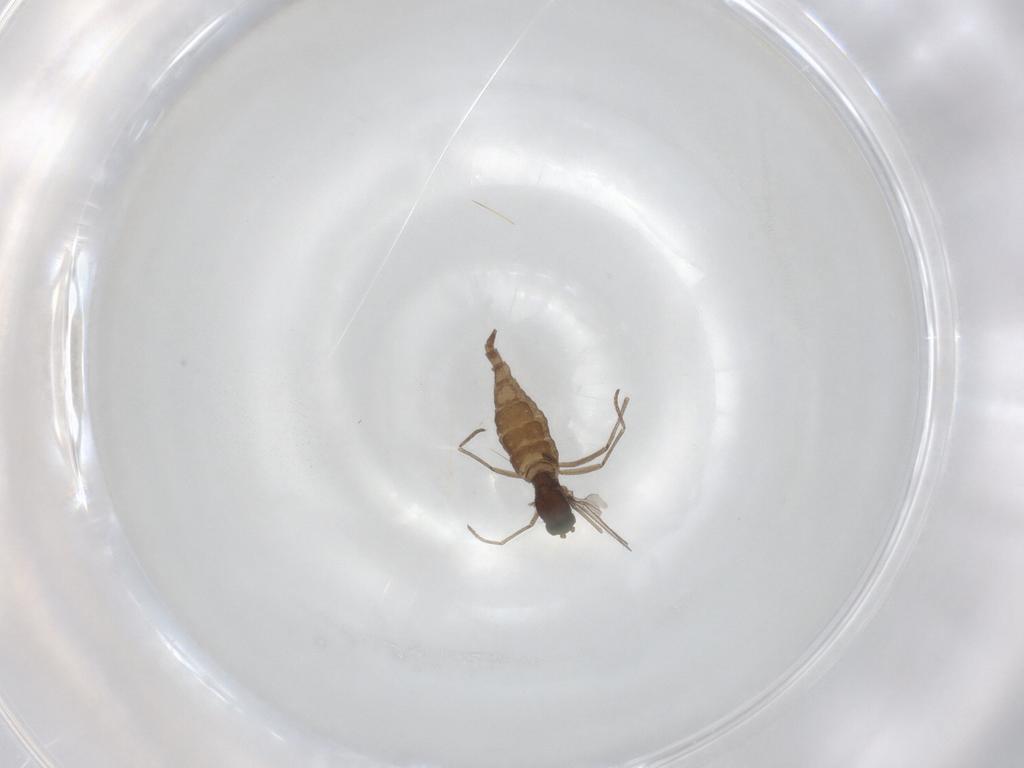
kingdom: Animalia
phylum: Arthropoda
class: Insecta
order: Diptera
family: Sciaridae
